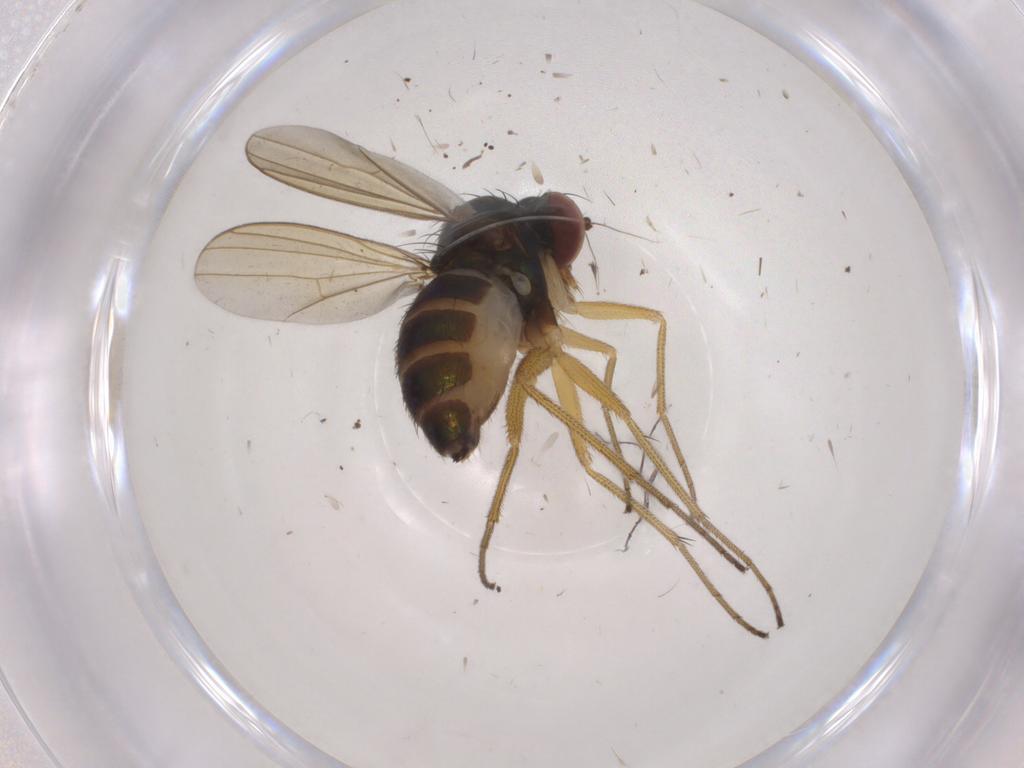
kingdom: Animalia
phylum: Arthropoda
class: Insecta
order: Diptera
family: Dolichopodidae
